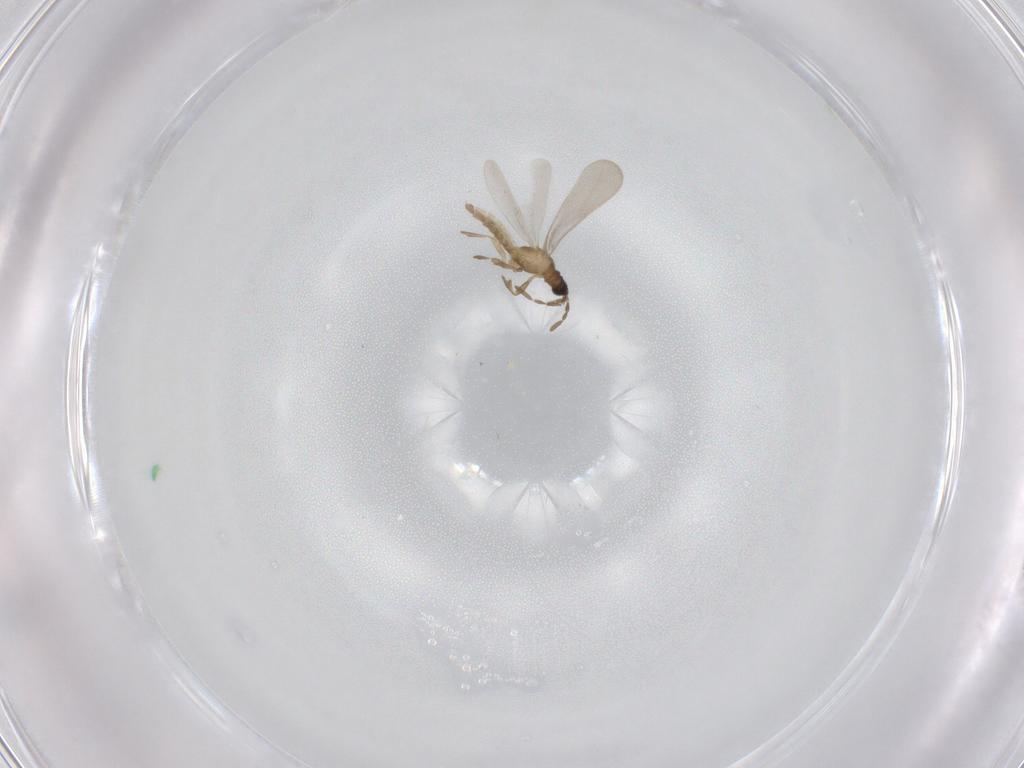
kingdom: Animalia
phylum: Arthropoda
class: Insecta
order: Hemiptera
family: Enicocephalidae
